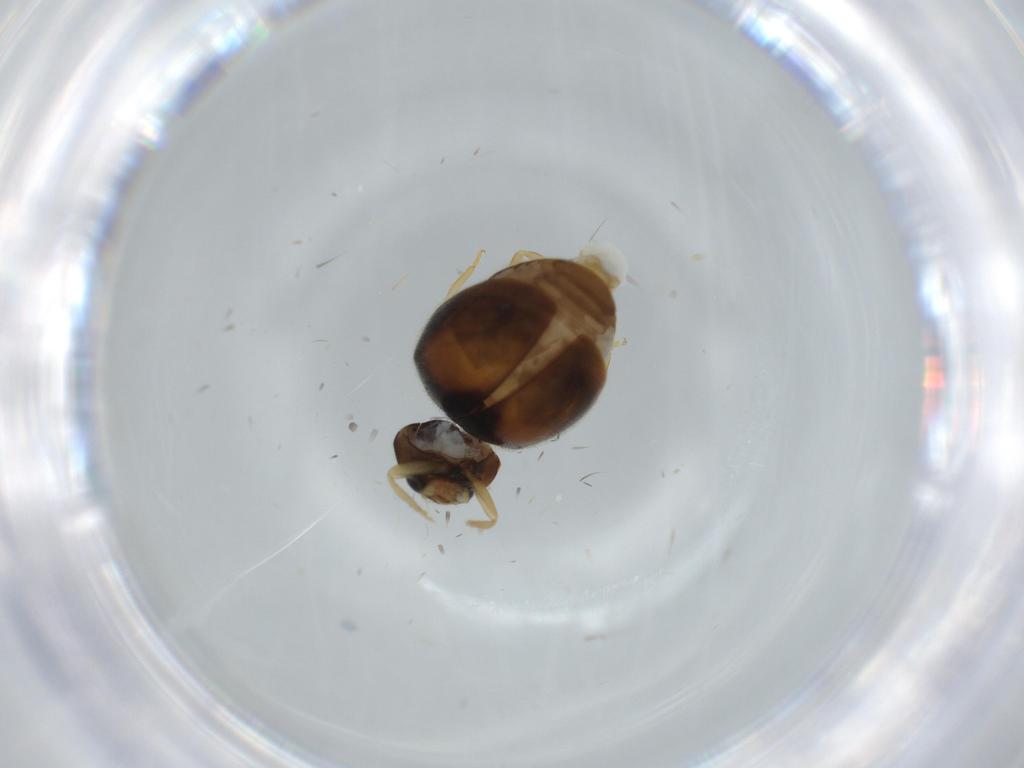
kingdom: Animalia
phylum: Arthropoda
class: Insecta
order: Coleoptera
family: Coccinellidae
